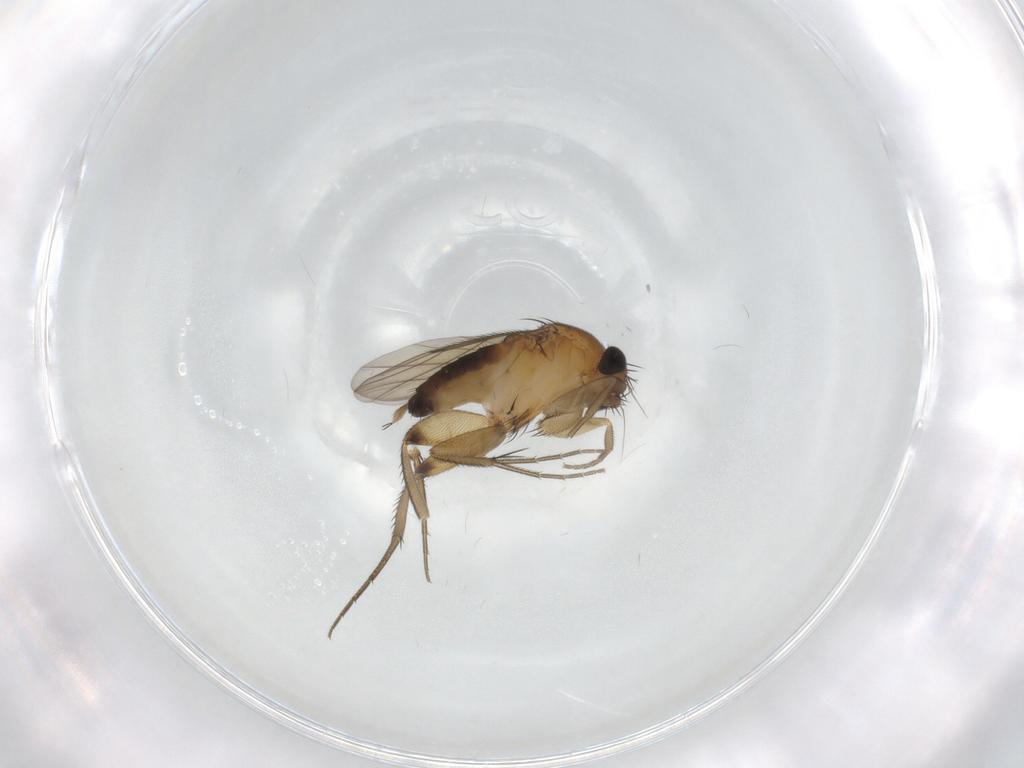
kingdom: Animalia
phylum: Arthropoda
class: Insecta
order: Diptera
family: Phoridae
